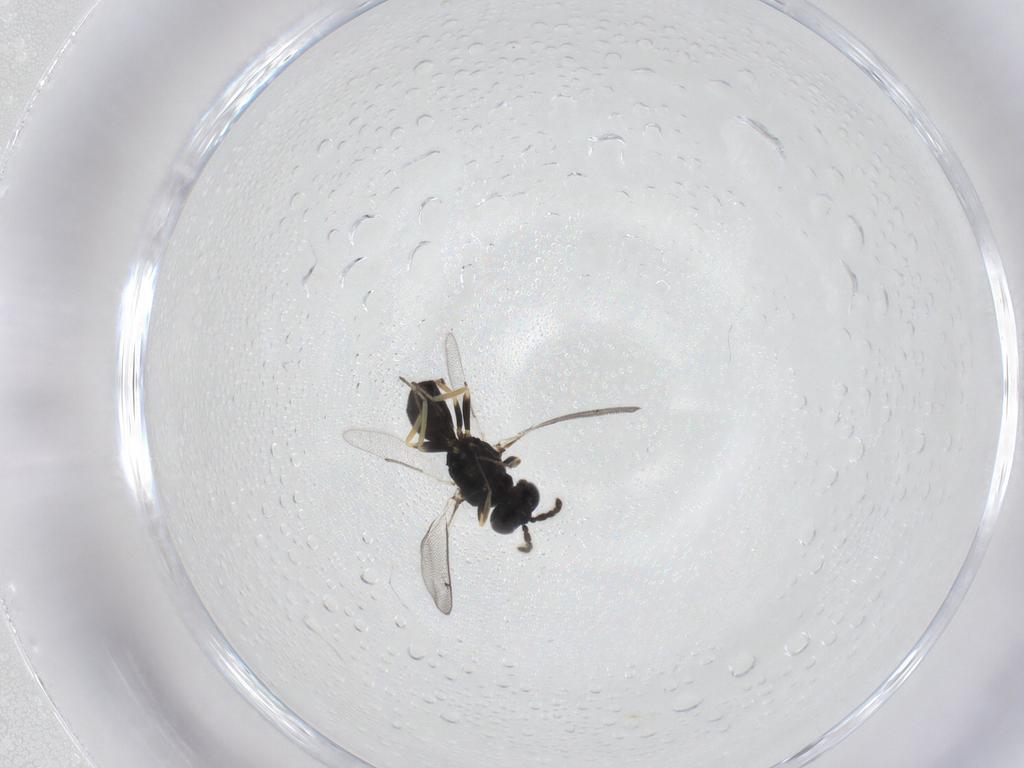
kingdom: Animalia
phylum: Arthropoda
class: Insecta
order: Hymenoptera
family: Eulophidae
